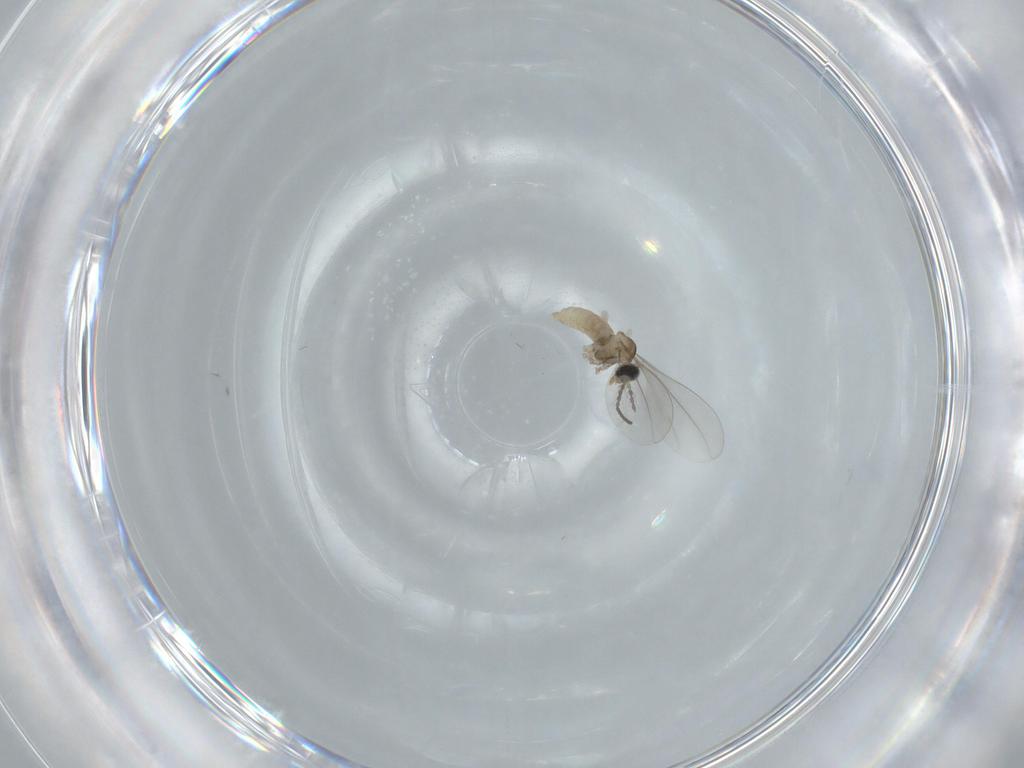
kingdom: Animalia
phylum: Arthropoda
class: Insecta
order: Diptera
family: Cecidomyiidae
